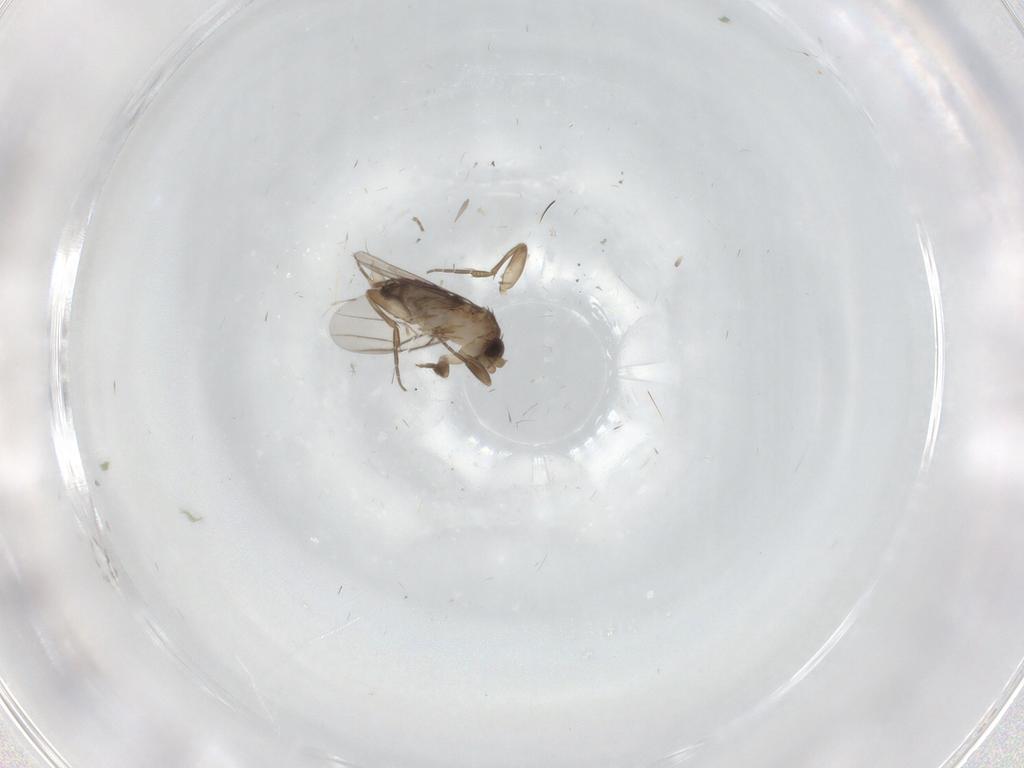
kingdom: Animalia
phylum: Arthropoda
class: Insecta
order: Diptera
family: Phoridae
